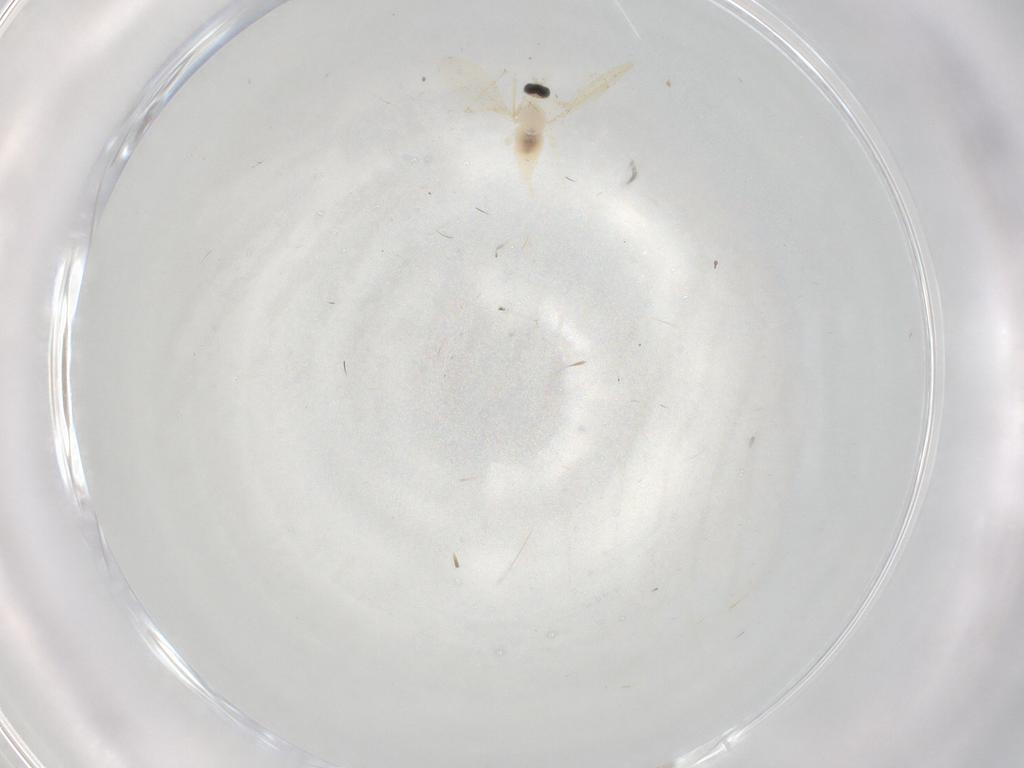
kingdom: Animalia
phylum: Arthropoda
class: Insecta
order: Diptera
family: Cecidomyiidae
